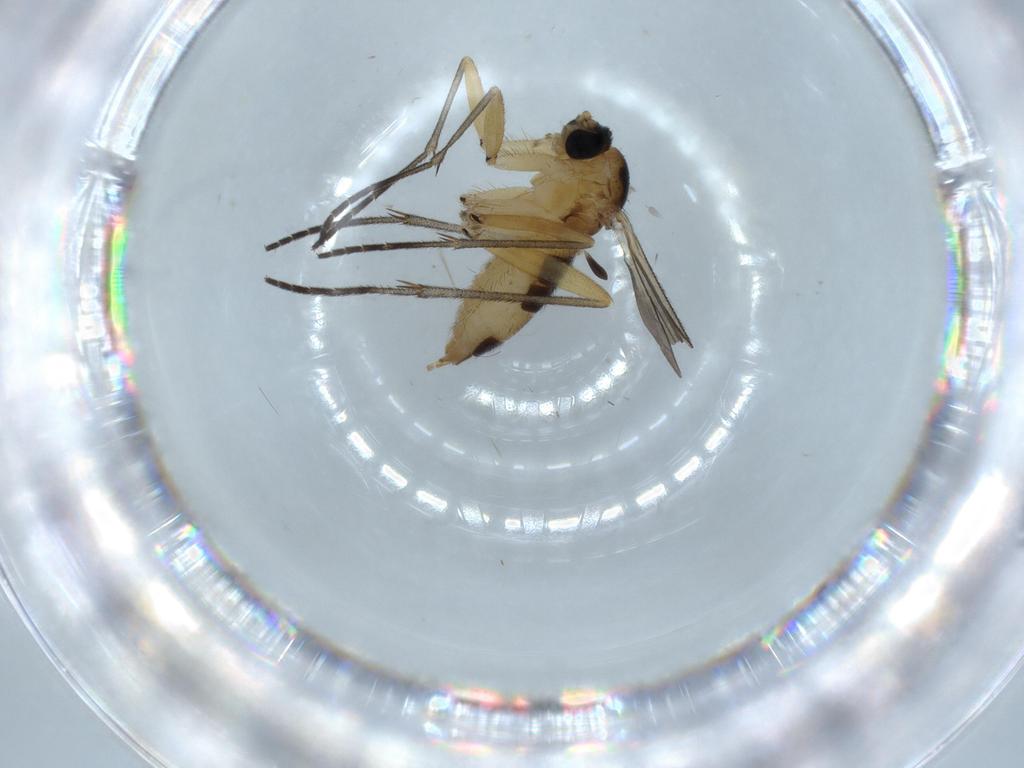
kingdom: Animalia
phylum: Arthropoda
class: Insecta
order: Diptera
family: Sciaridae
